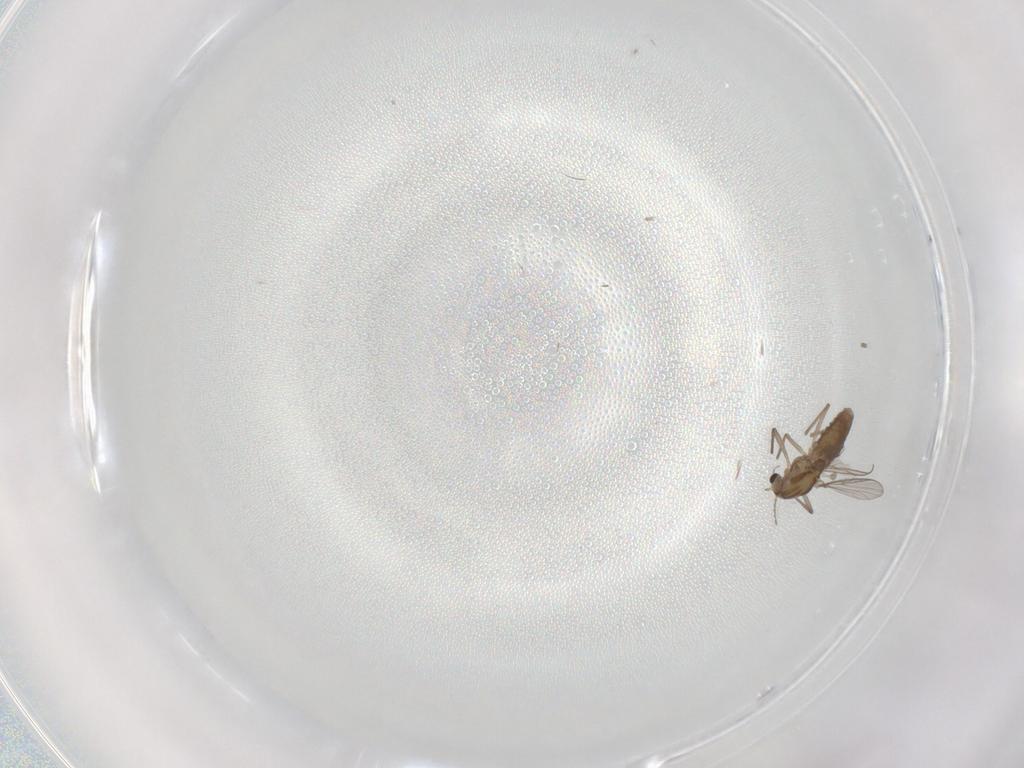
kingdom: Animalia
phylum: Arthropoda
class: Insecta
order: Diptera
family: Chironomidae
